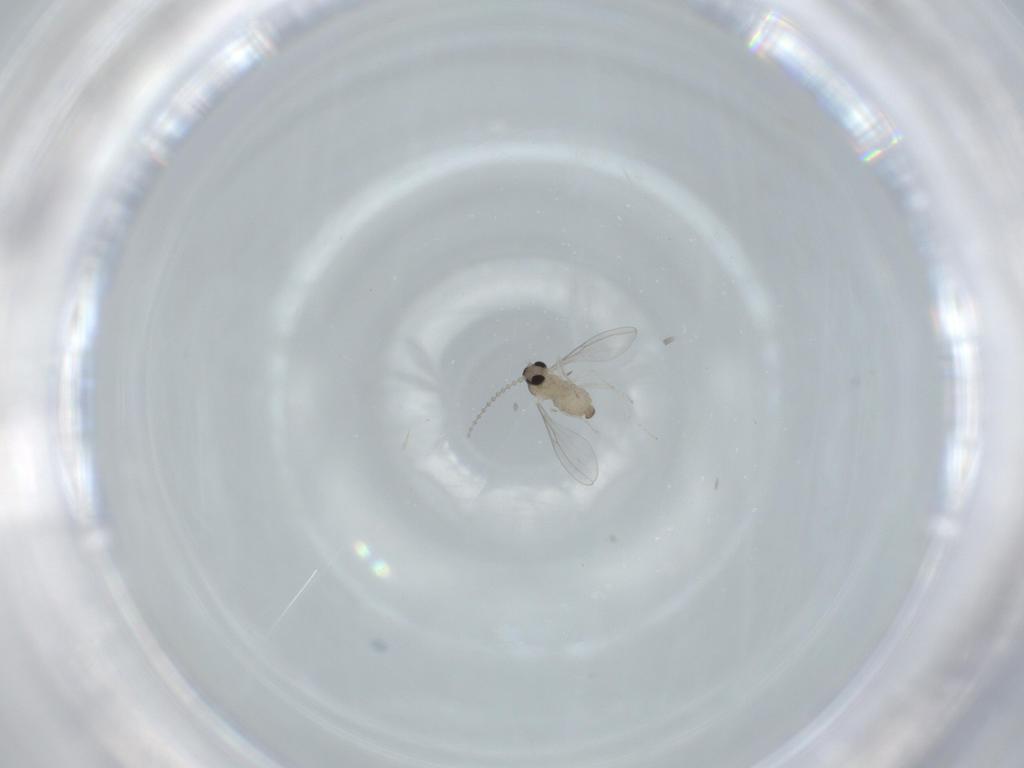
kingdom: Animalia
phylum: Arthropoda
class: Insecta
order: Diptera
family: Cecidomyiidae
